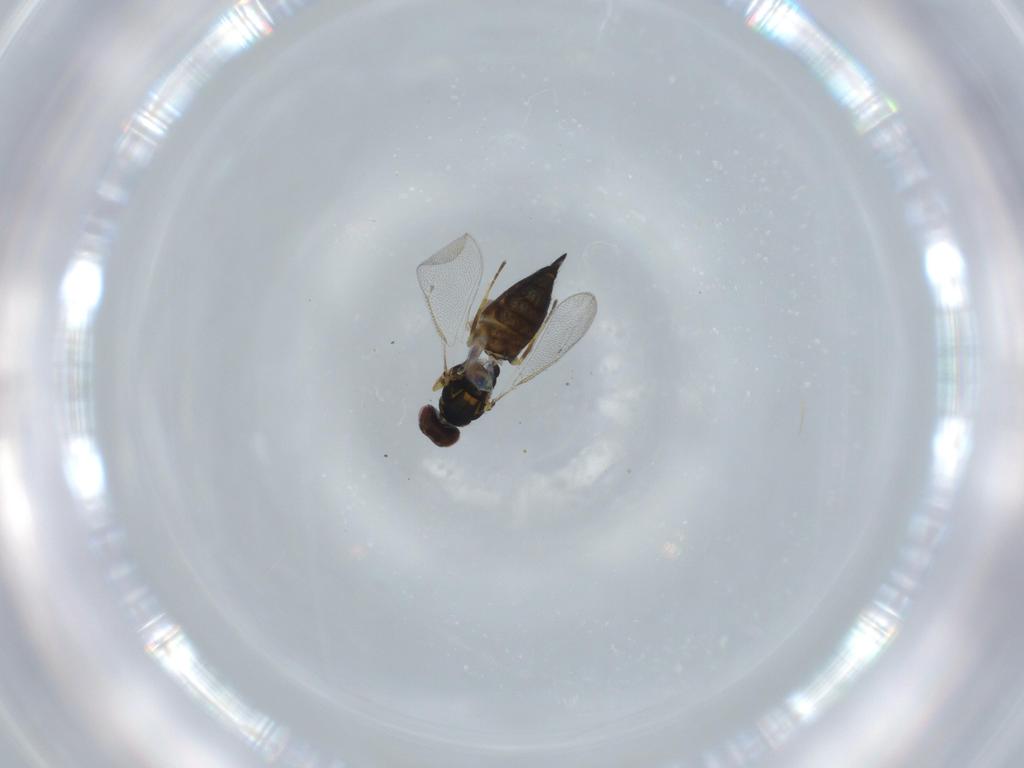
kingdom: Animalia
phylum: Arthropoda
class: Insecta
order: Hymenoptera
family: Eulophidae
